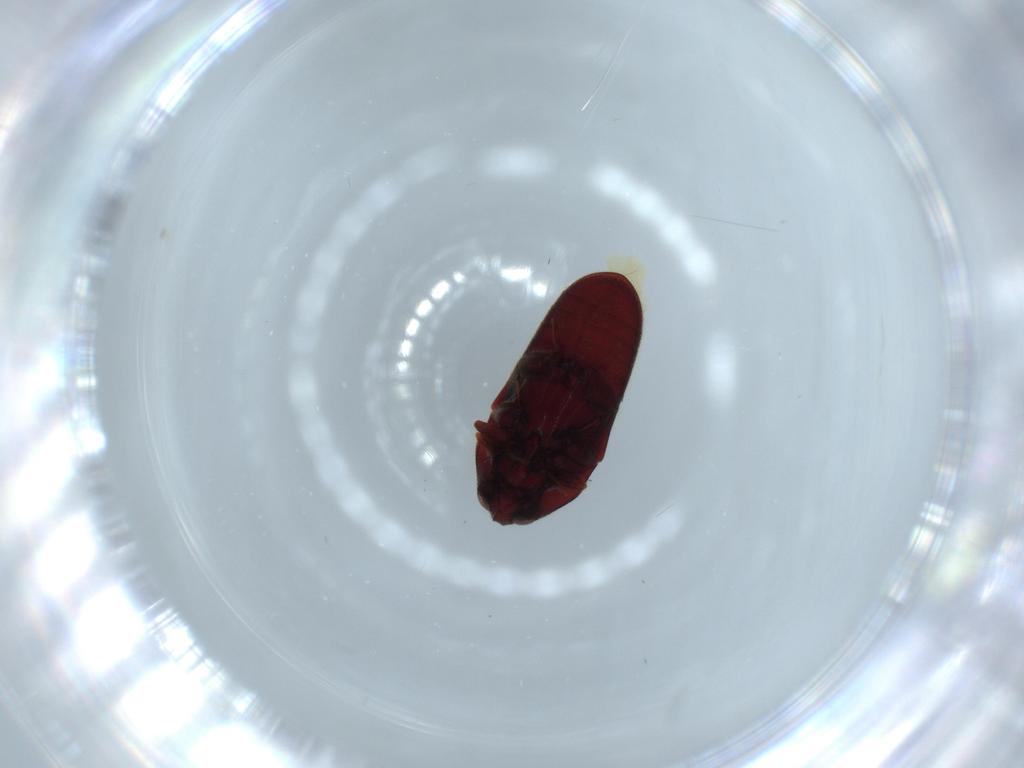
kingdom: Animalia
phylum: Arthropoda
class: Insecta
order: Coleoptera
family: Throscidae
